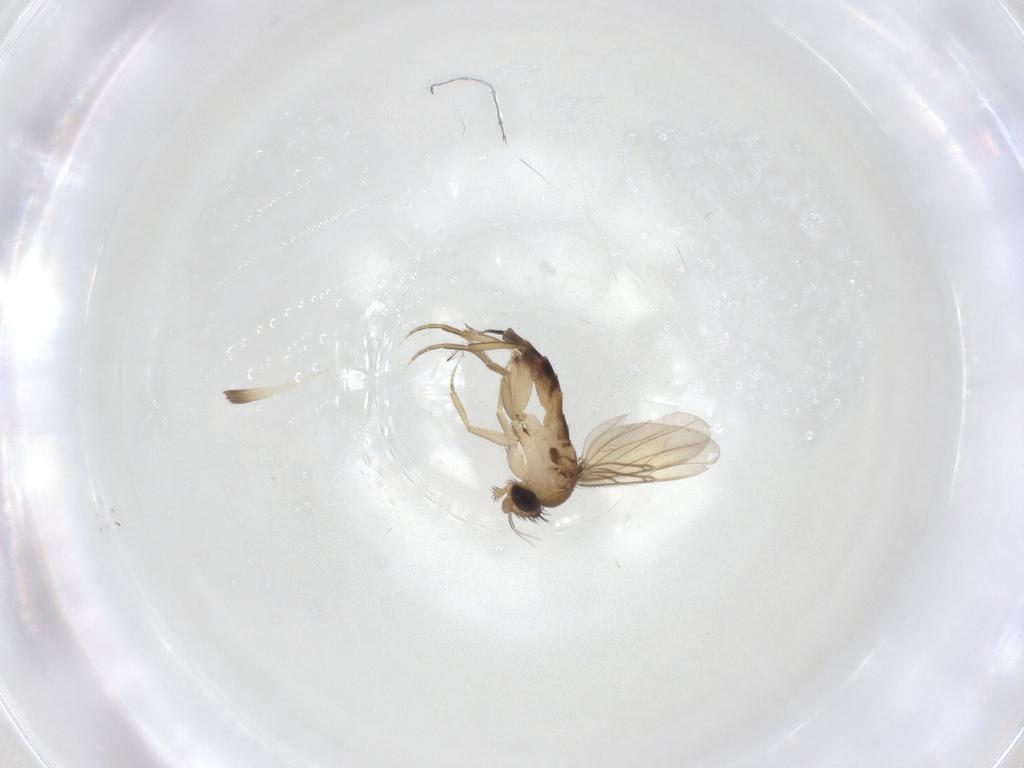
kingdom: Animalia
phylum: Arthropoda
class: Insecta
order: Diptera
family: Phoridae
